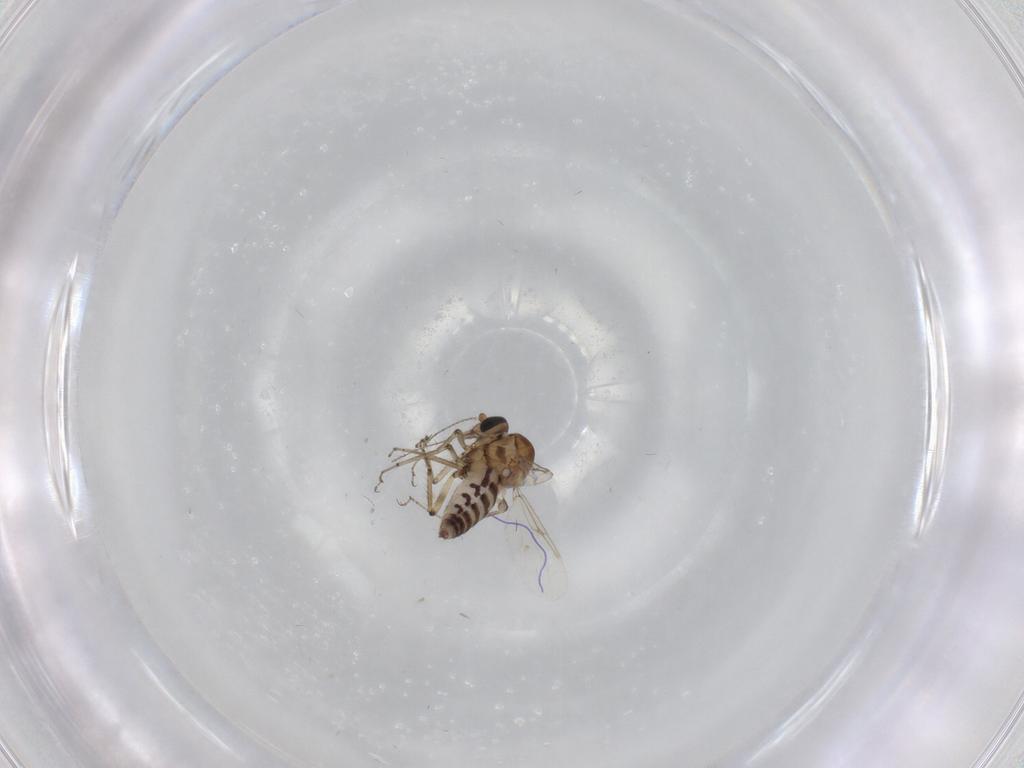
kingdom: Animalia
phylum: Arthropoda
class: Insecta
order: Diptera
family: Ceratopogonidae
